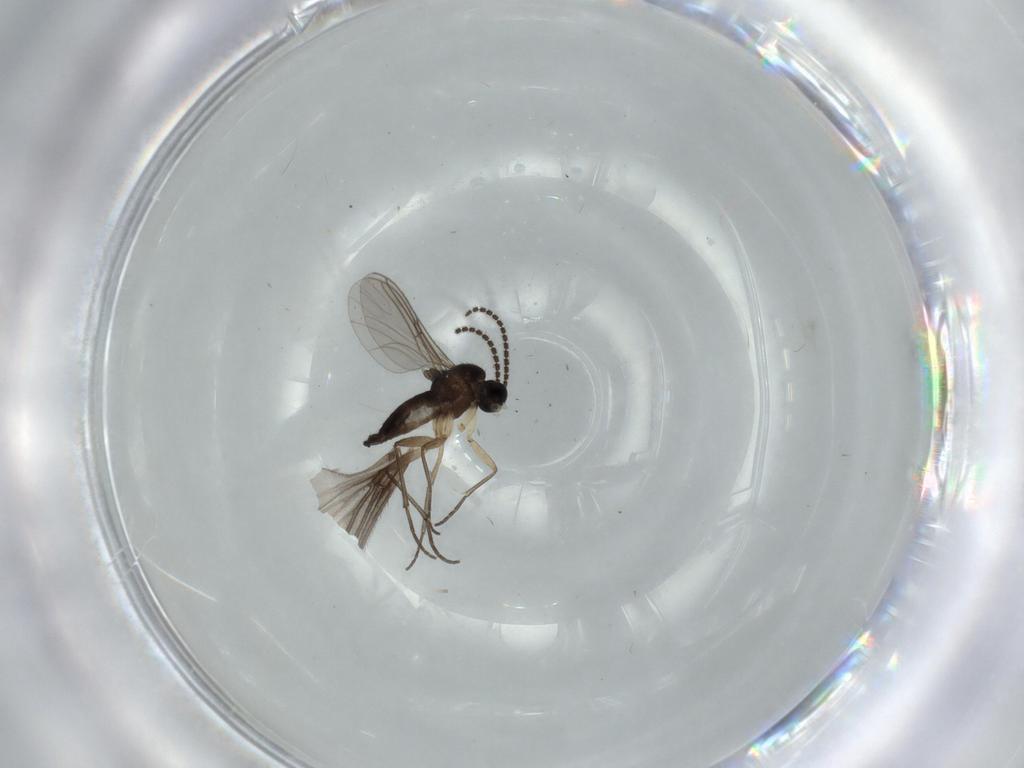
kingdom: Animalia
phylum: Arthropoda
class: Insecta
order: Diptera
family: Sciaridae
